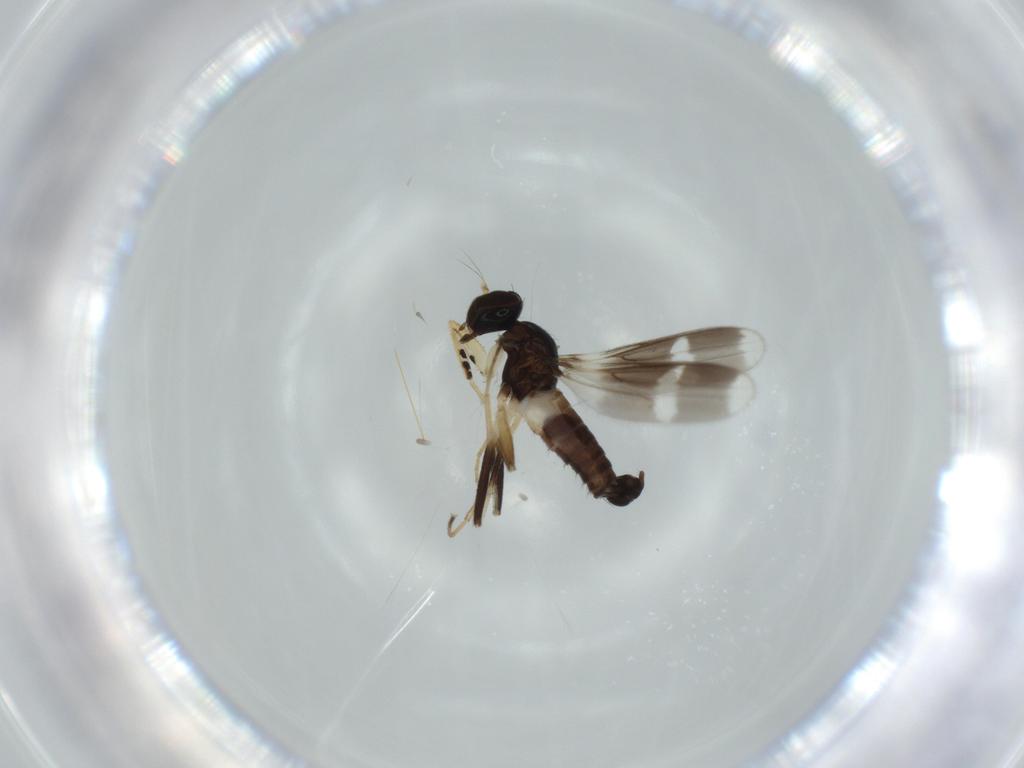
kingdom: Animalia
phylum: Arthropoda
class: Insecta
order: Diptera
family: Hybotidae
